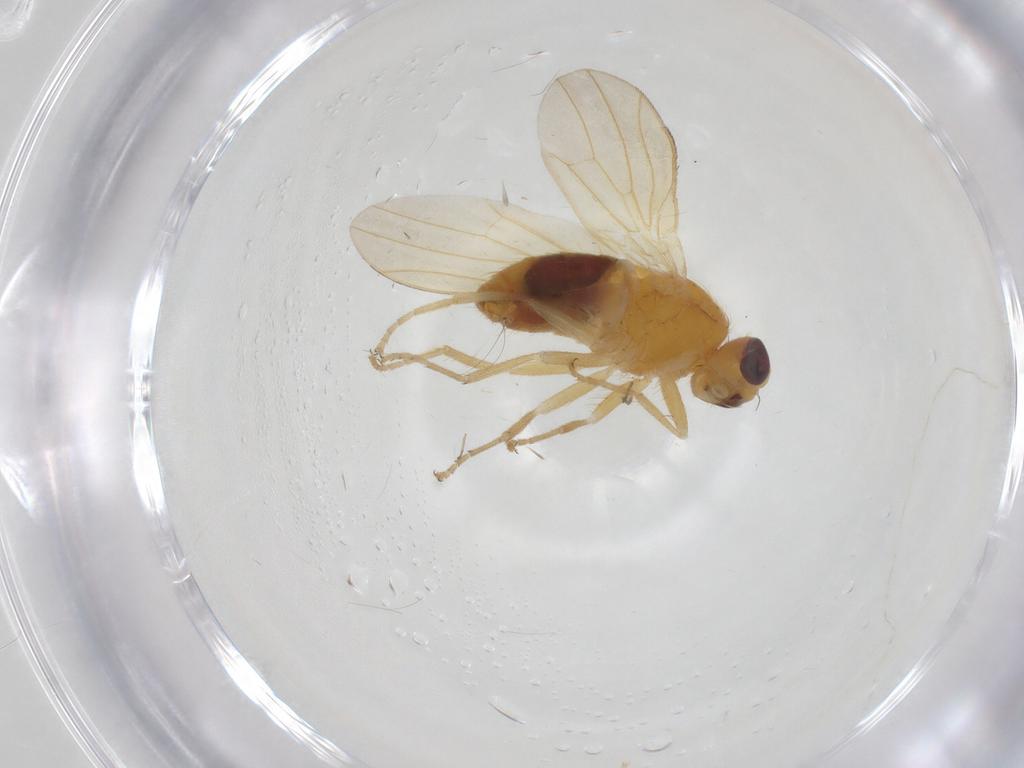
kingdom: Animalia
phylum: Arthropoda
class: Insecta
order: Diptera
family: Heleomyzidae
